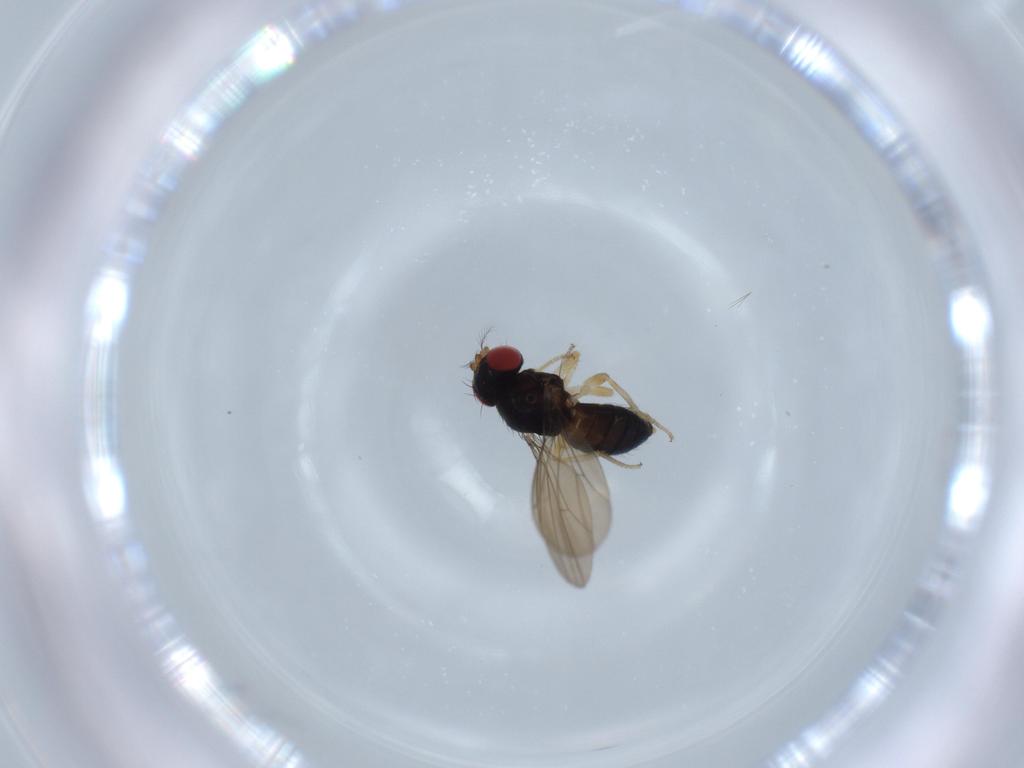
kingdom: Animalia
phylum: Arthropoda
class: Insecta
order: Diptera
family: Drosophilidae
